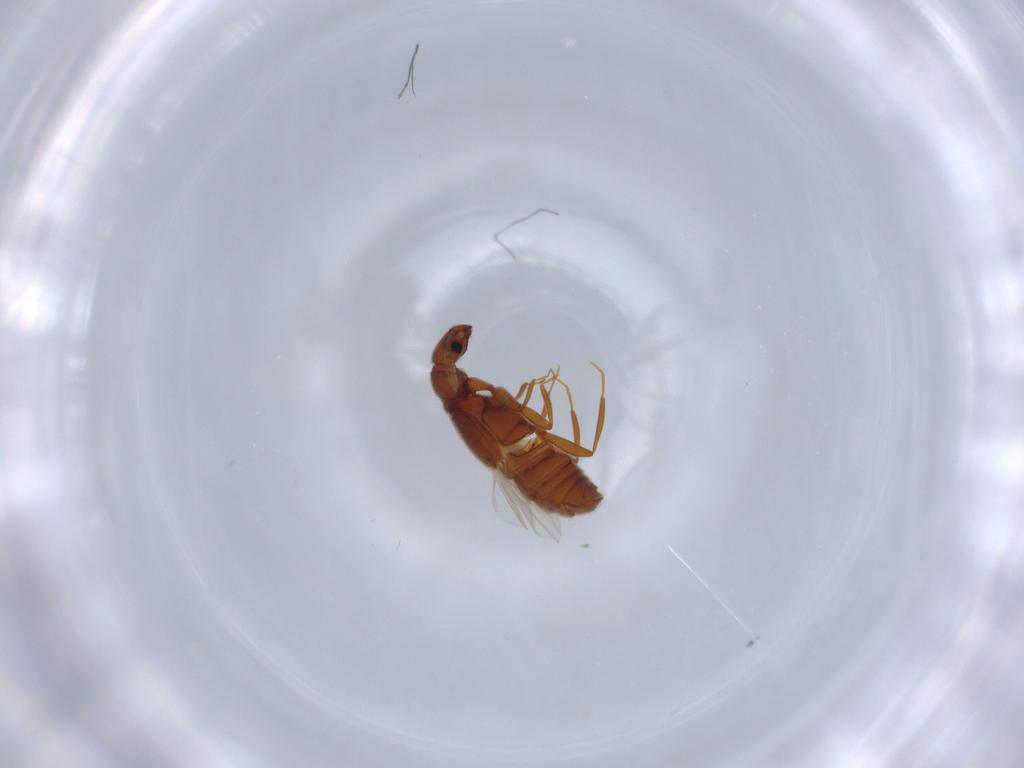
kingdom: Animalia
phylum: Arthropoda
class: Insecta
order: Coleoptera
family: Staphylinidae
